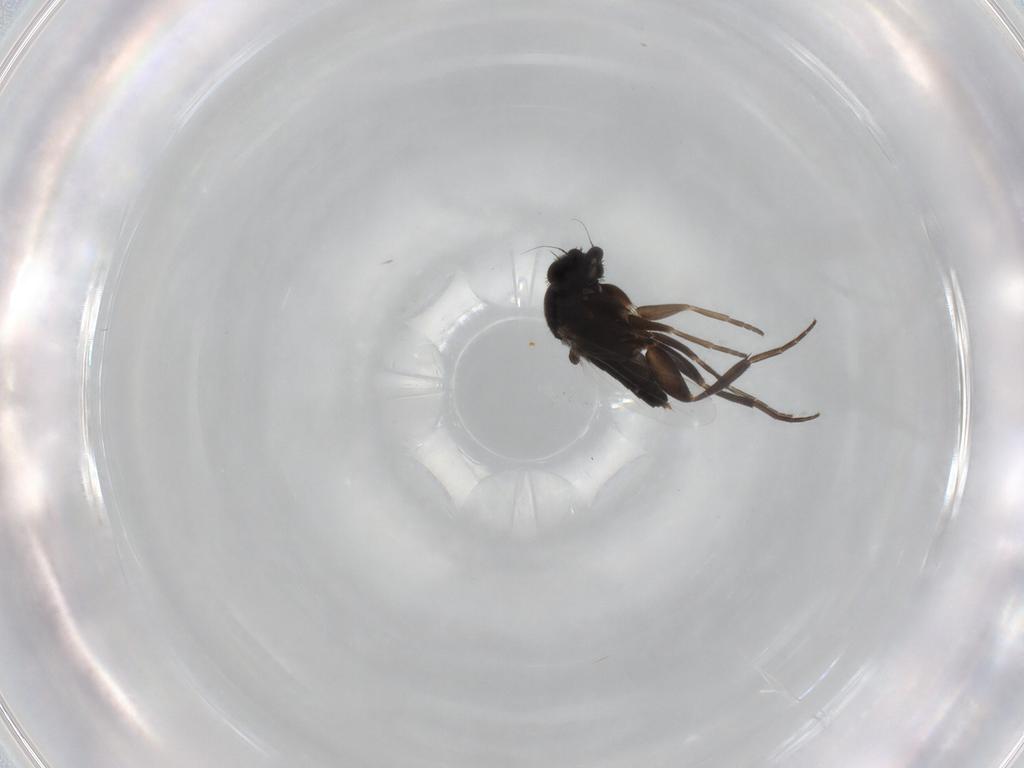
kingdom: Animalia
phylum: Arthropoda
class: Insecta
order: Diptera
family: Phoridae
